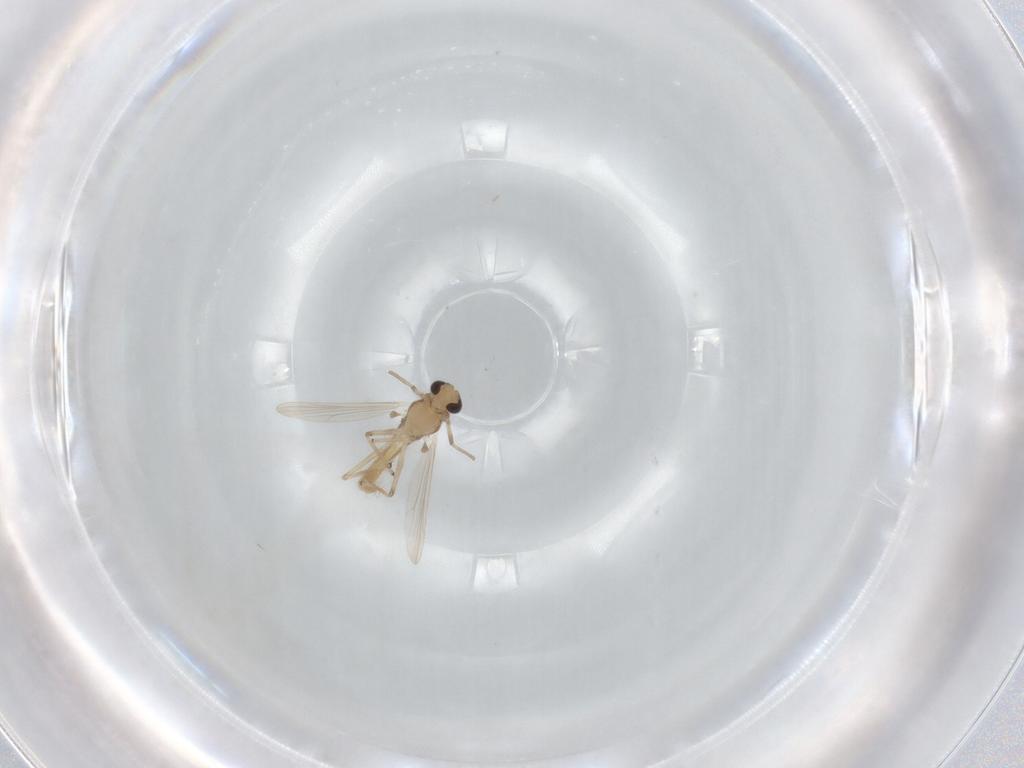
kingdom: Animalia
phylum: Arthropoda
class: Insecta
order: Diptera
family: Chironomidae
